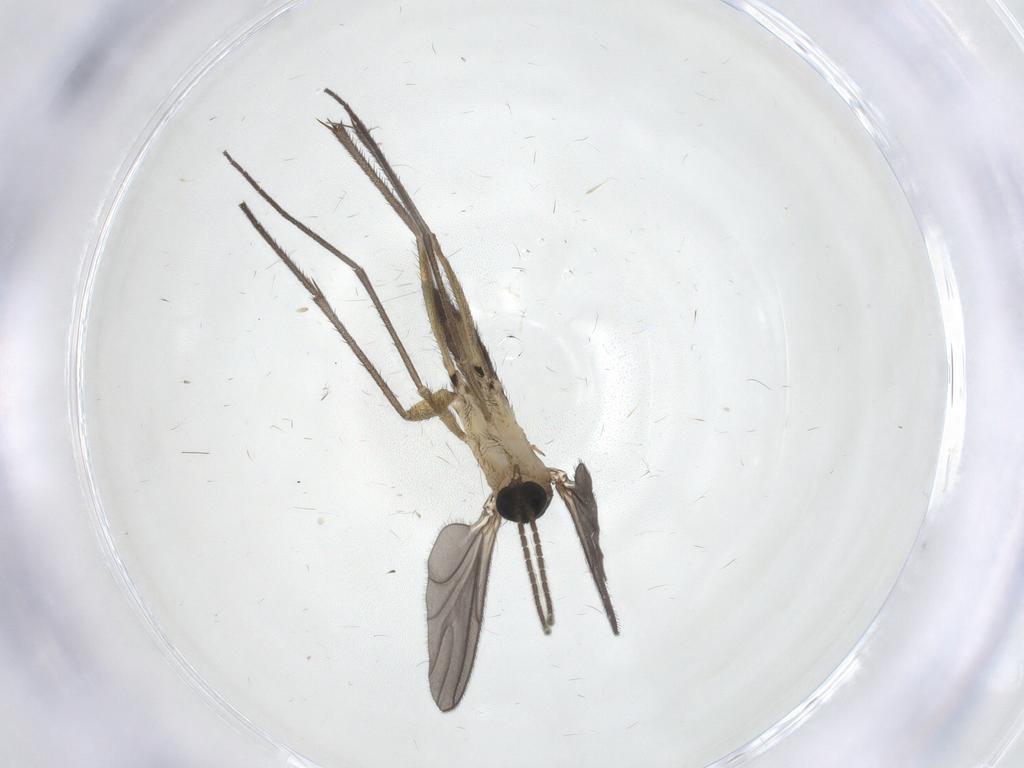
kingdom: Animalia
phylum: Arthropoda
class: Insecta
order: Diptera
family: Sciaridae
